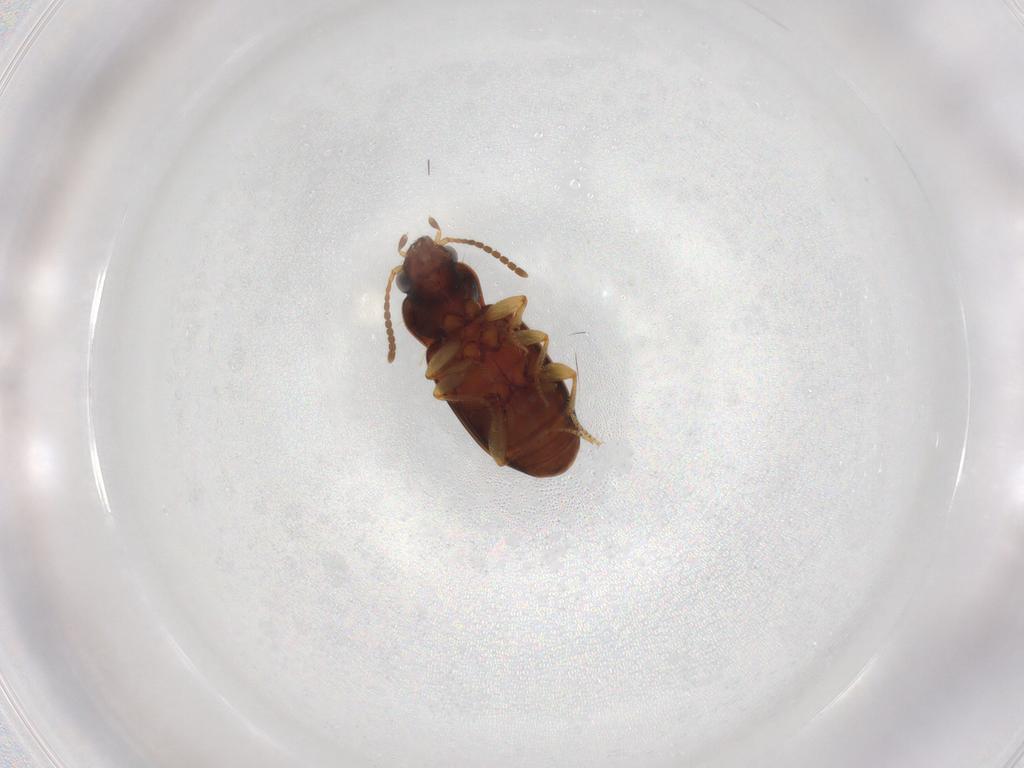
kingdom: Animalia
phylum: Arthropoda
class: Insecta
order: Coleoptera
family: Carabidae
